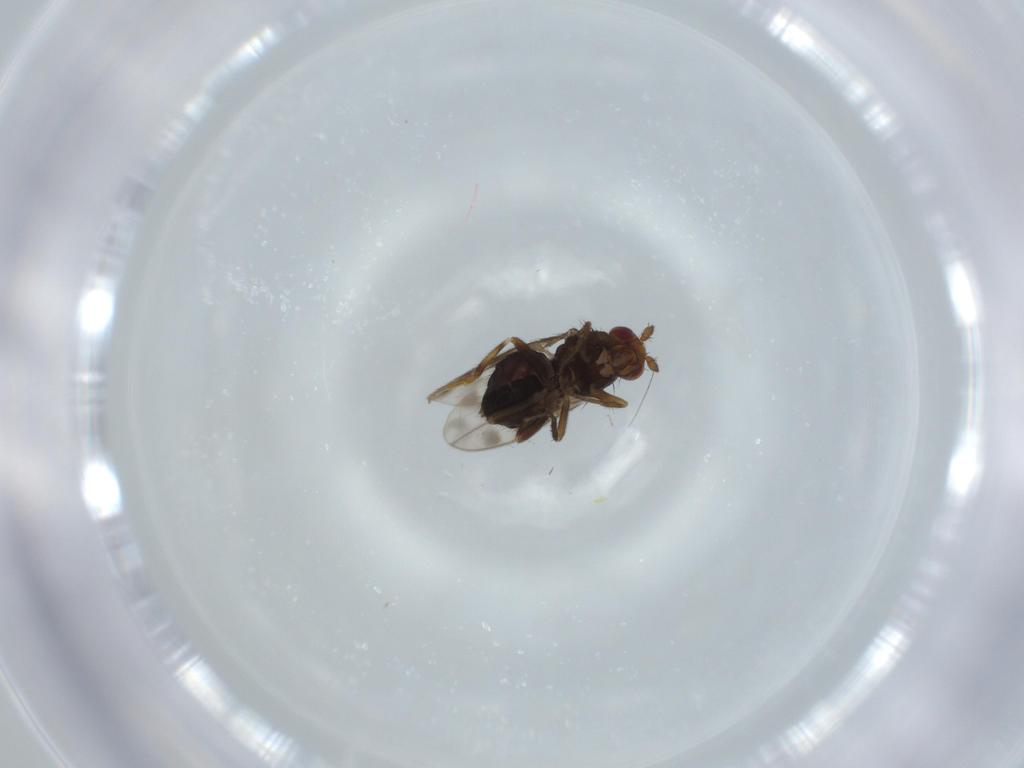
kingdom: Animalia
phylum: Arthropoda
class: Insecta
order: Diptera
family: Sphaeroceridae
